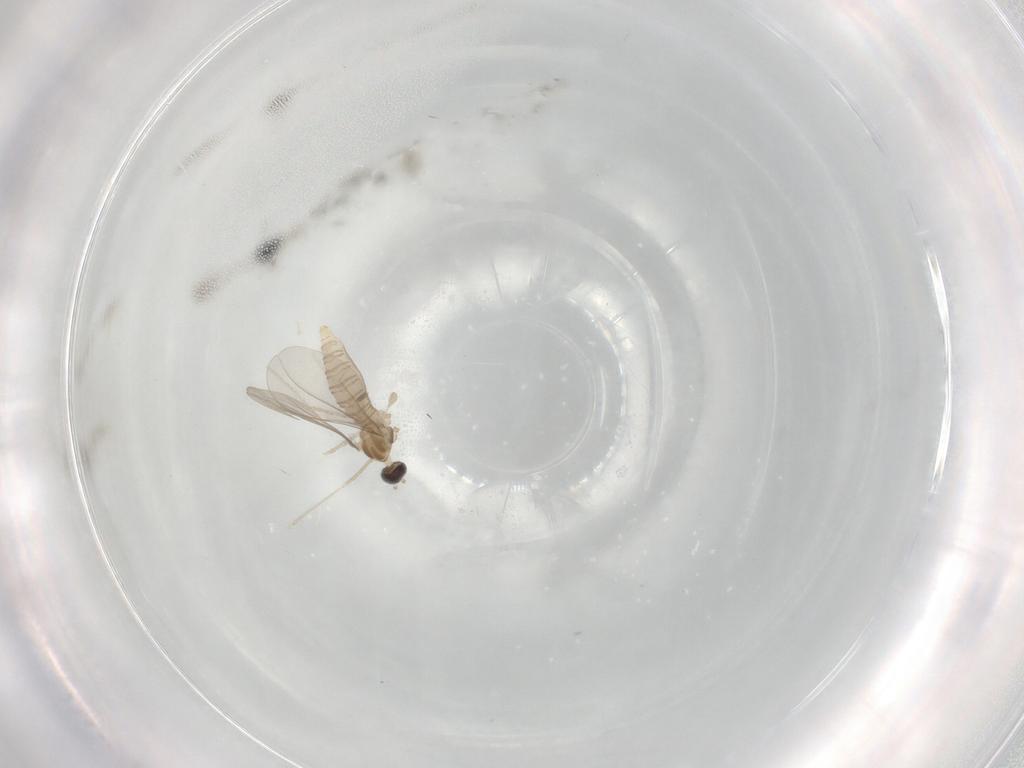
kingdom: Animalia
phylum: Arthropoda
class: Insecta
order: Diptera
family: Cecidomyiidae
